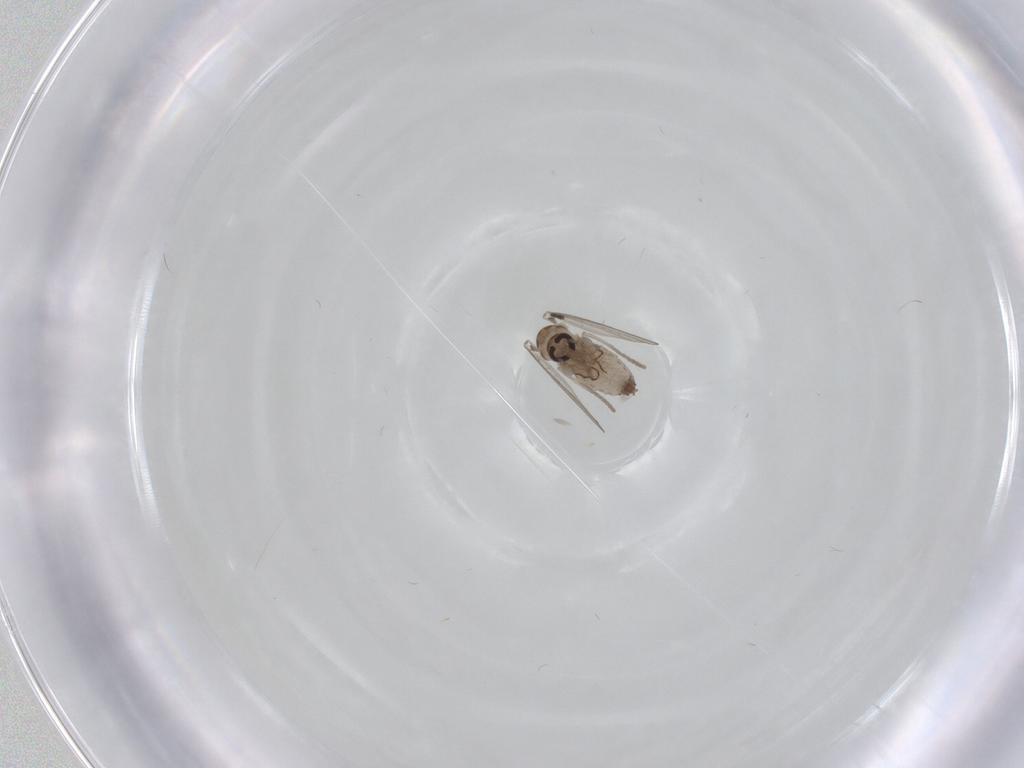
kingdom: Animalia
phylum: Arthropoda
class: Insecta
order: Diptera
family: Psychodidae
